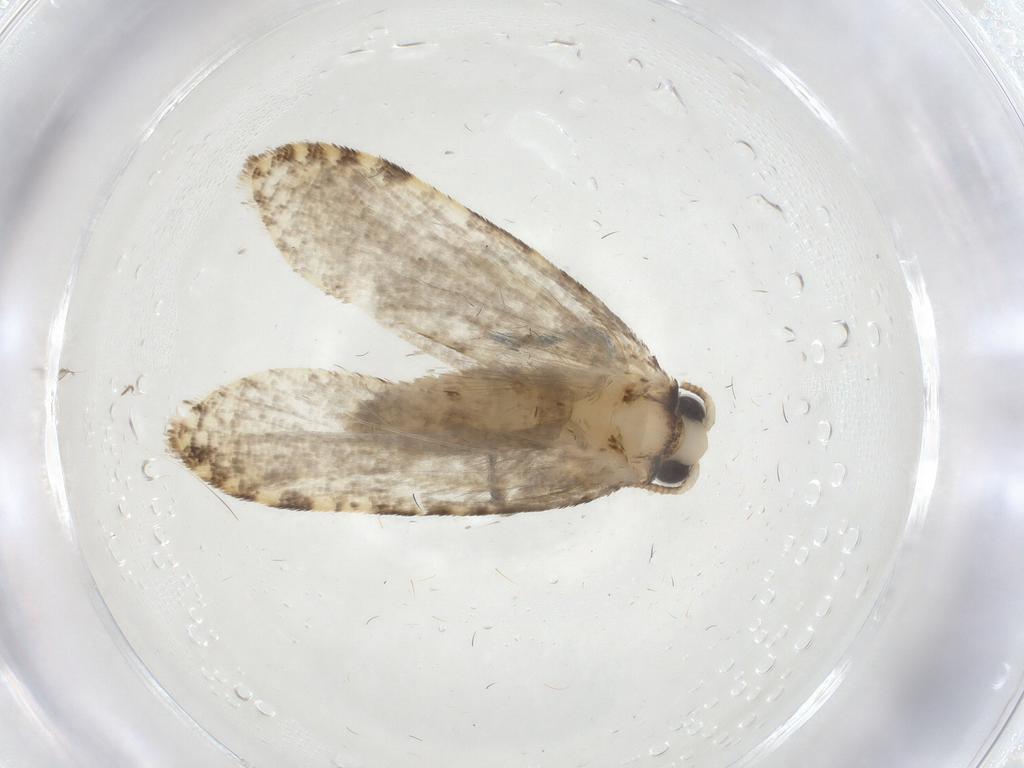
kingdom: Animalia
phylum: Arthropoda
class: Insecta
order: Lepidoptera
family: Tineidae
